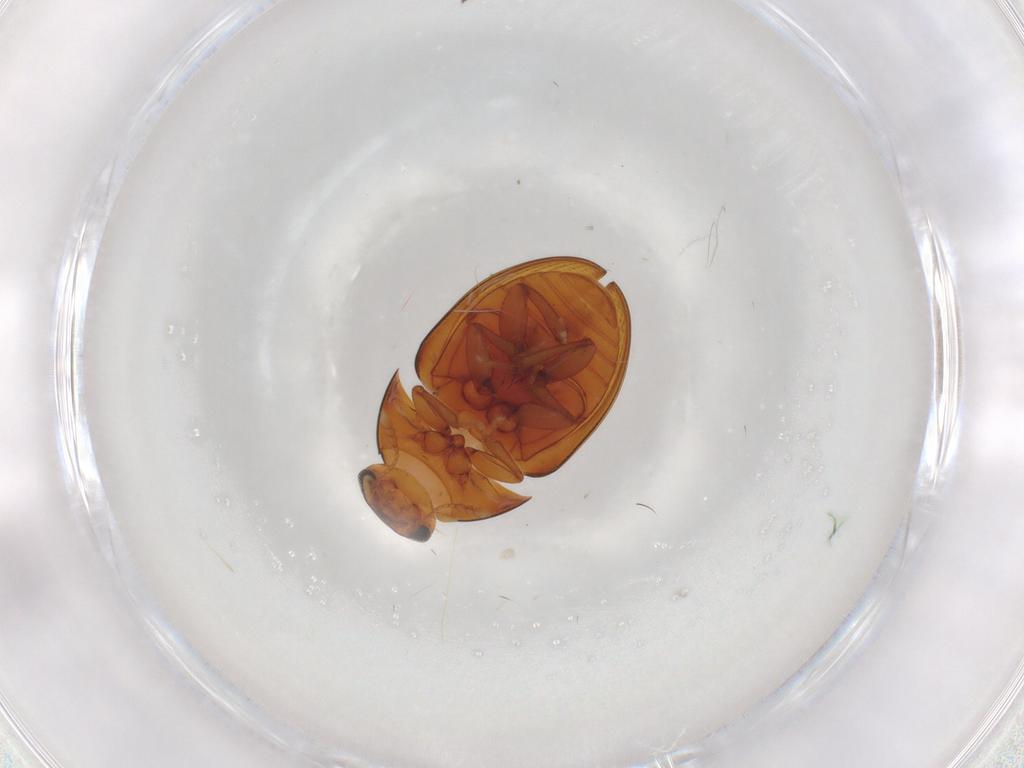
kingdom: Animalia
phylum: Arthropoda
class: Insecta
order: Coleoptera
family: Phalacridae
